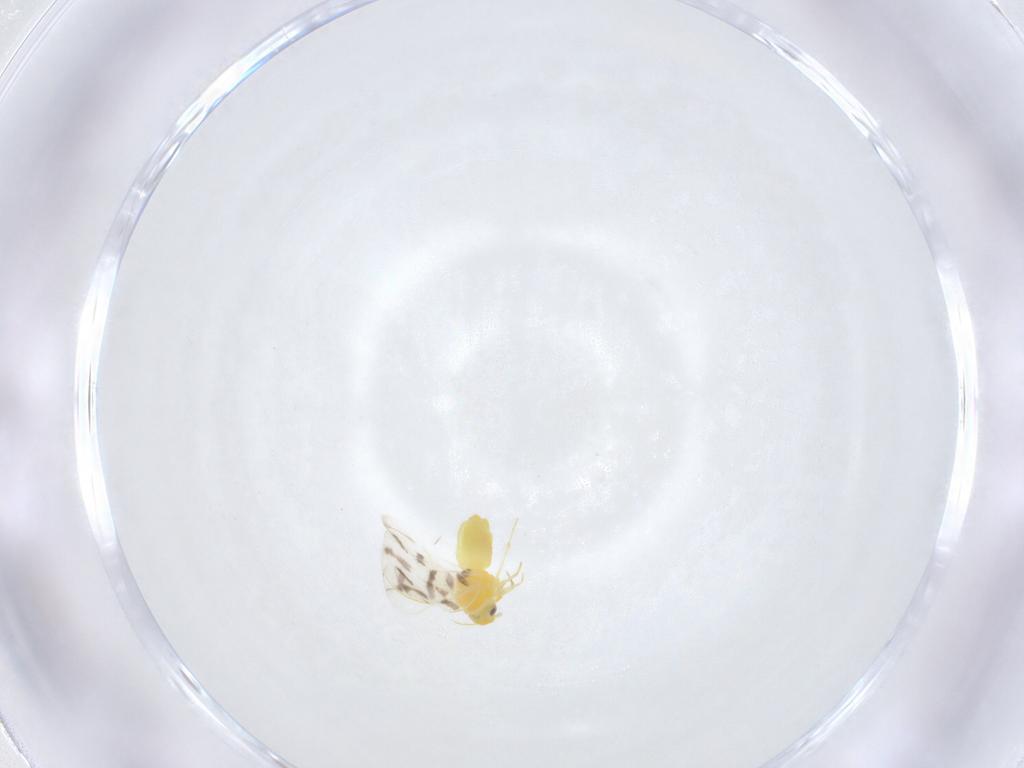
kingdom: Animalia
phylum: Arthropoda
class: Insecta
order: Hemiptera
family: Aleyrodidae
